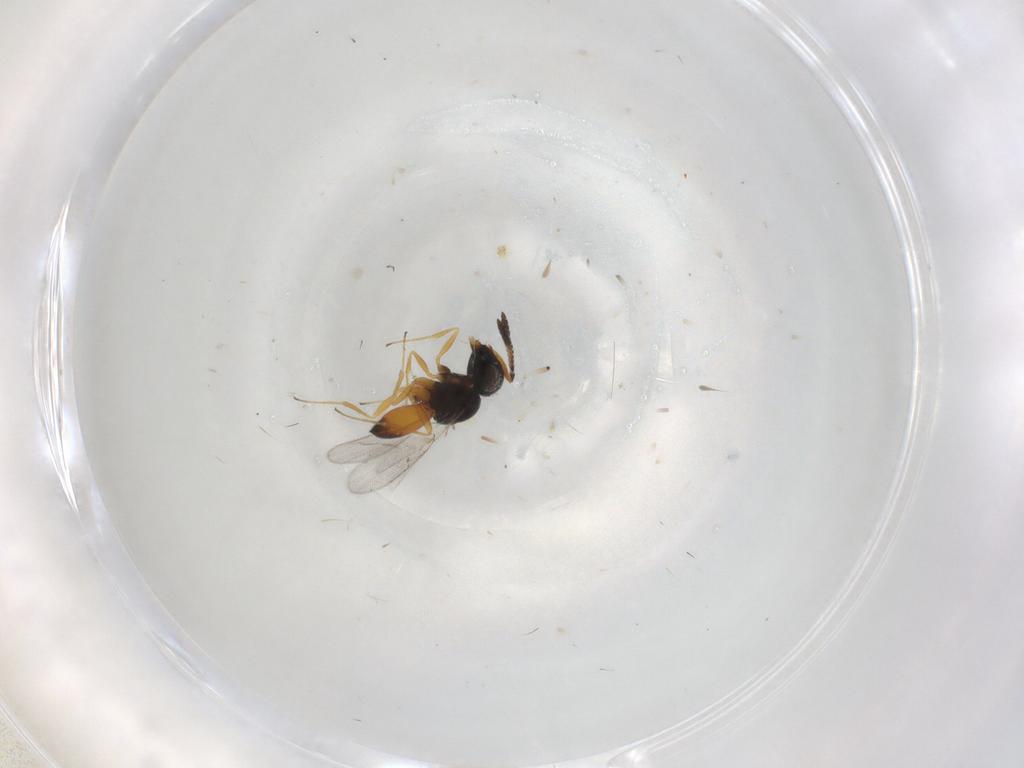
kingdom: Animalia
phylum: Arthropoda
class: Insecta
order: Hymenoptera
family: Scelionidae
